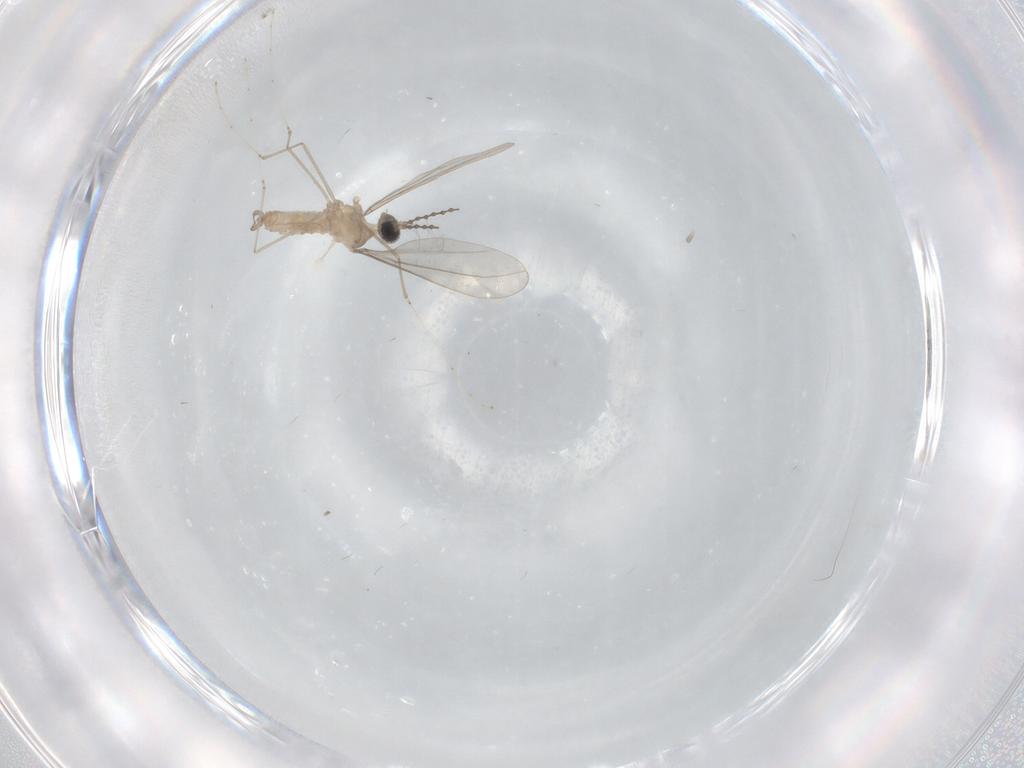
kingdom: Animalia
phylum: Arthropoda
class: Insecta
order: Diptera
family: Cecidomyiidae
